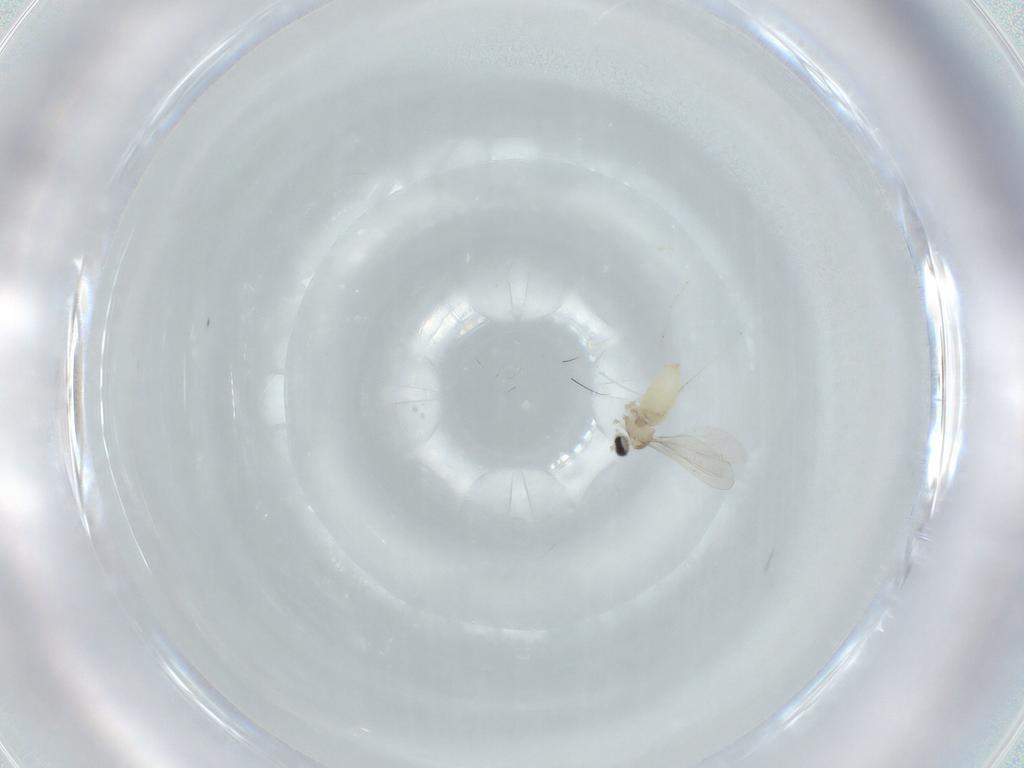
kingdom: Animalia
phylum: Arthropoda
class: Insecta
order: Diptera
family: Cecidomyiidae
